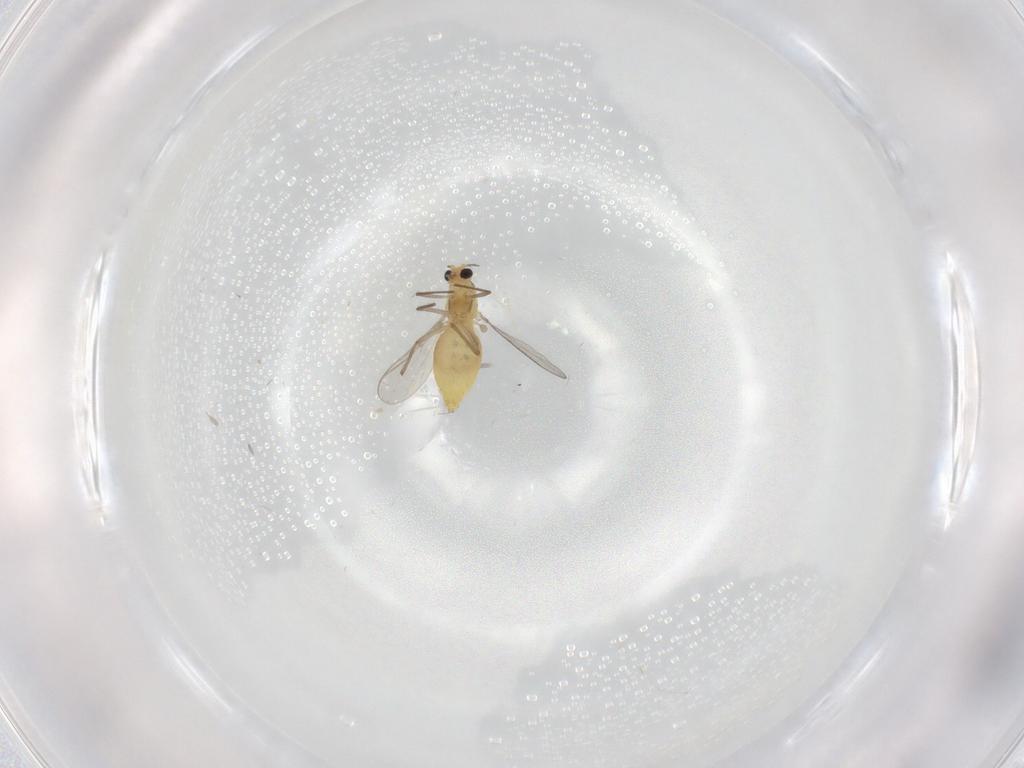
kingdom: Animalia
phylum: Arthropoda
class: Insecta
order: Diptera
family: Chironomidae
